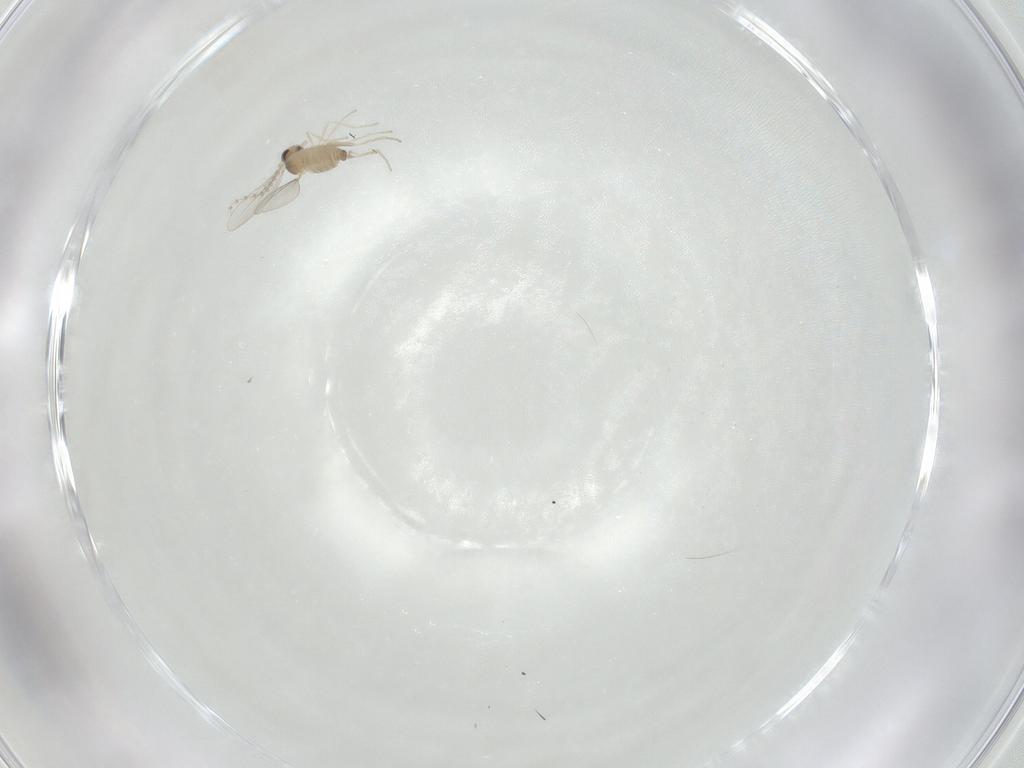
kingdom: Animalia
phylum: Arthropoda
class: Insecta
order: Diptera
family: Cecidomyiidae
